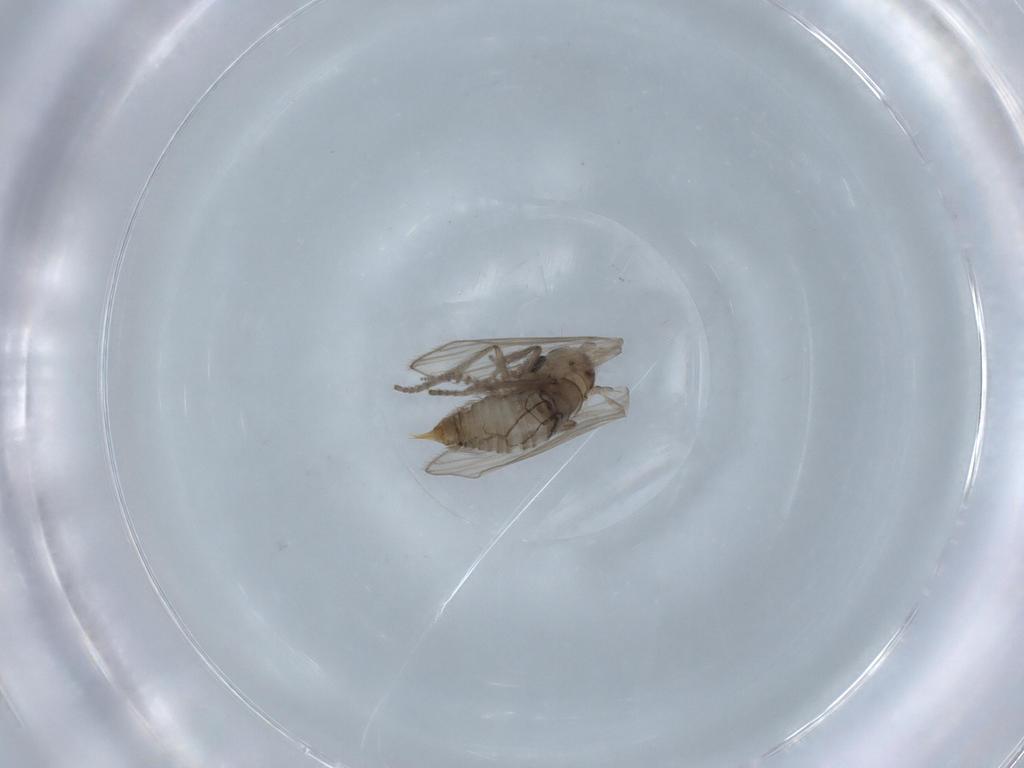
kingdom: Animalia
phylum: Arthropoda
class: Insecta
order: Diptera
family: Psychodidae
